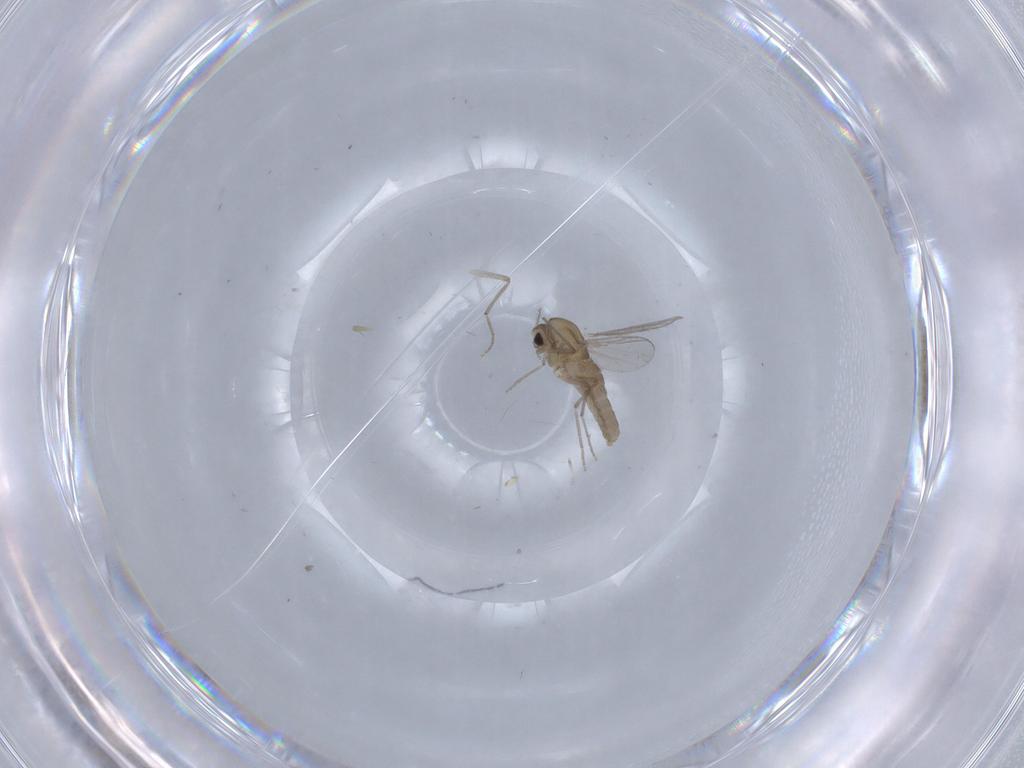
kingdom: Animalia
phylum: Arthropoda
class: Insecta
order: Diptera
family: Chironomidae
